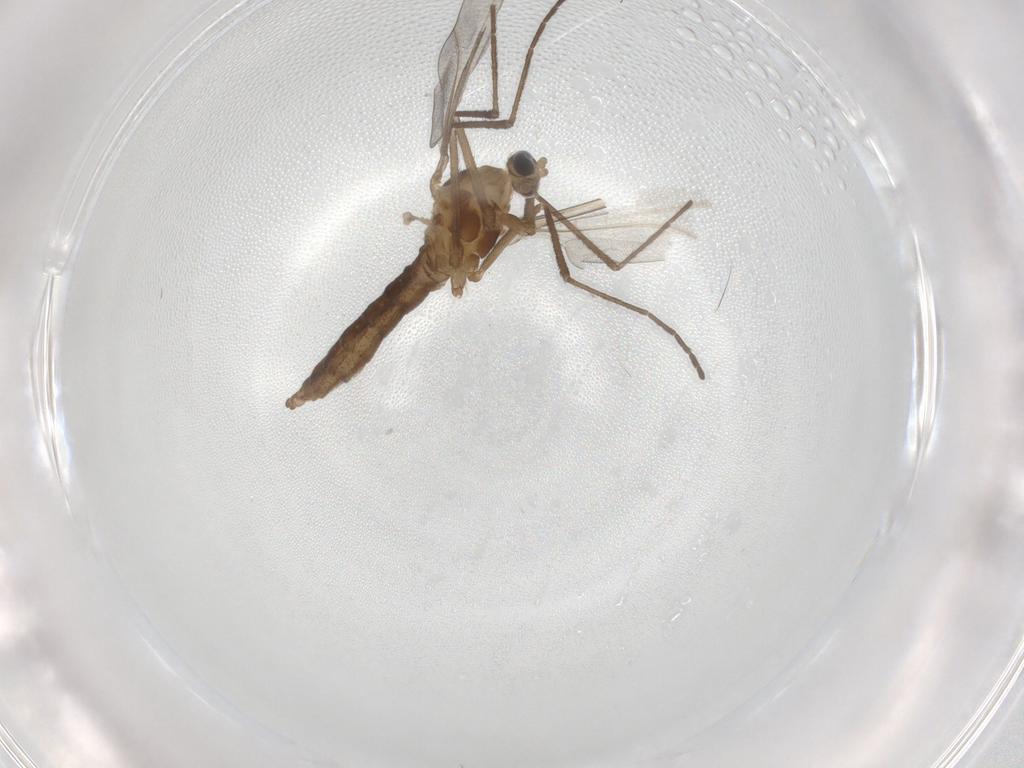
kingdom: Animalia
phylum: Arthropoda
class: Insecta
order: Diptera
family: Cecidomyiidae
